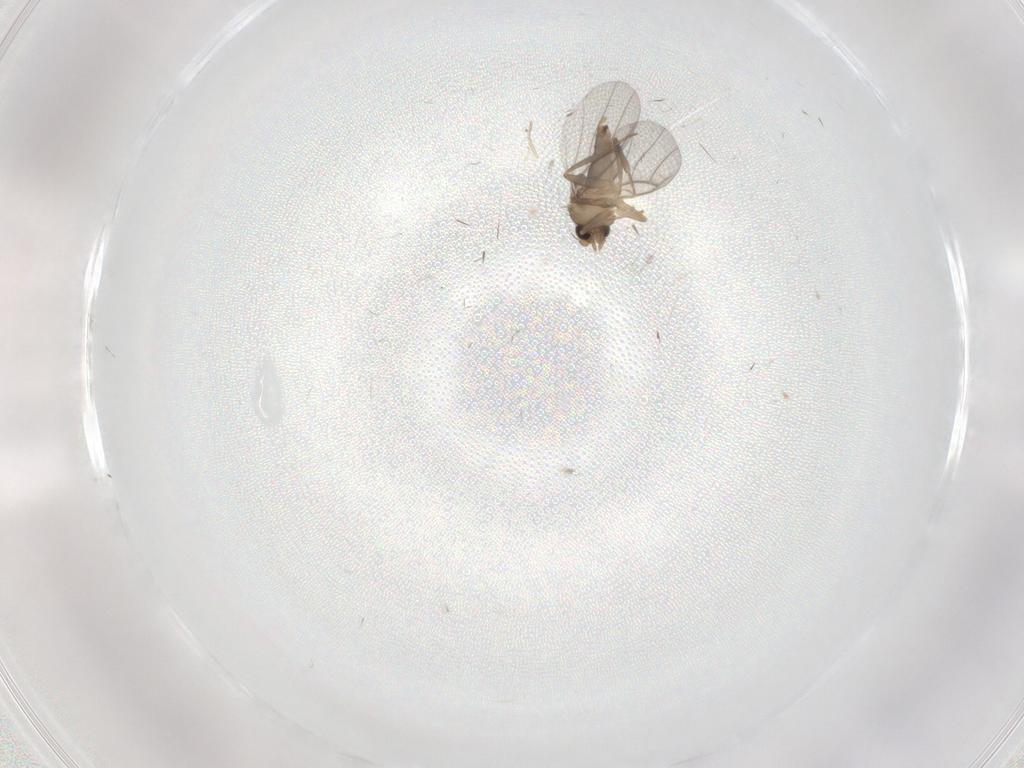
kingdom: Animalia
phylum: Arthropoda
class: Insecta
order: Diptera
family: Phoridae
